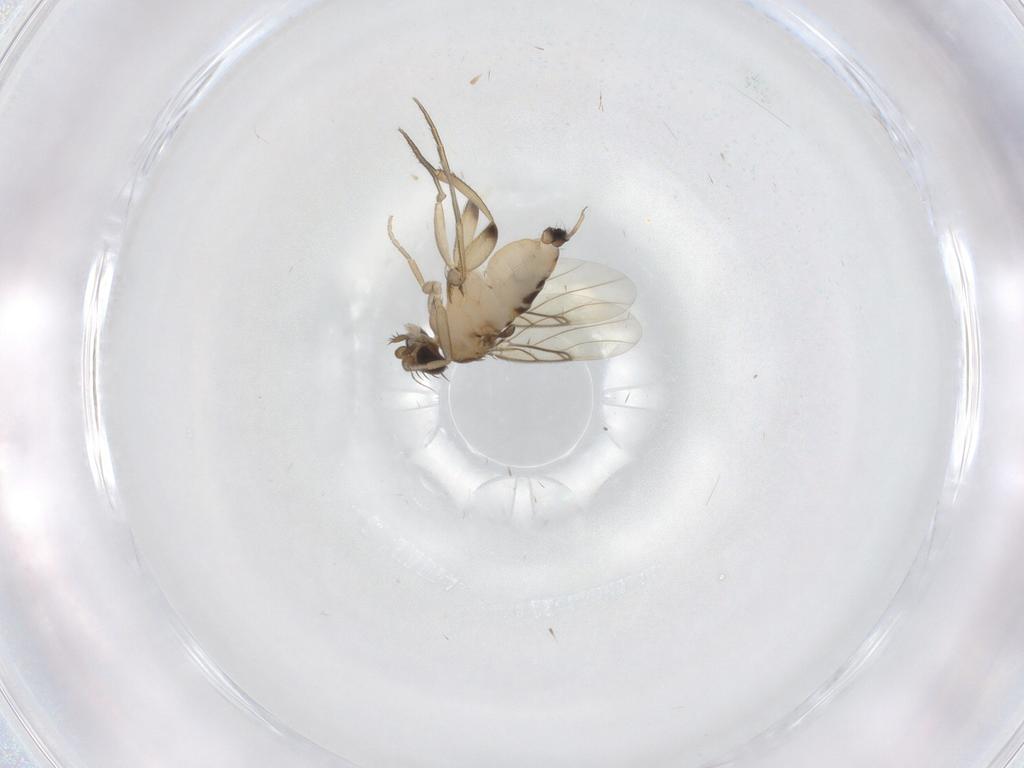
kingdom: Animalia
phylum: Arthropoda
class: Insecta
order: Diptera
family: Phoridae
